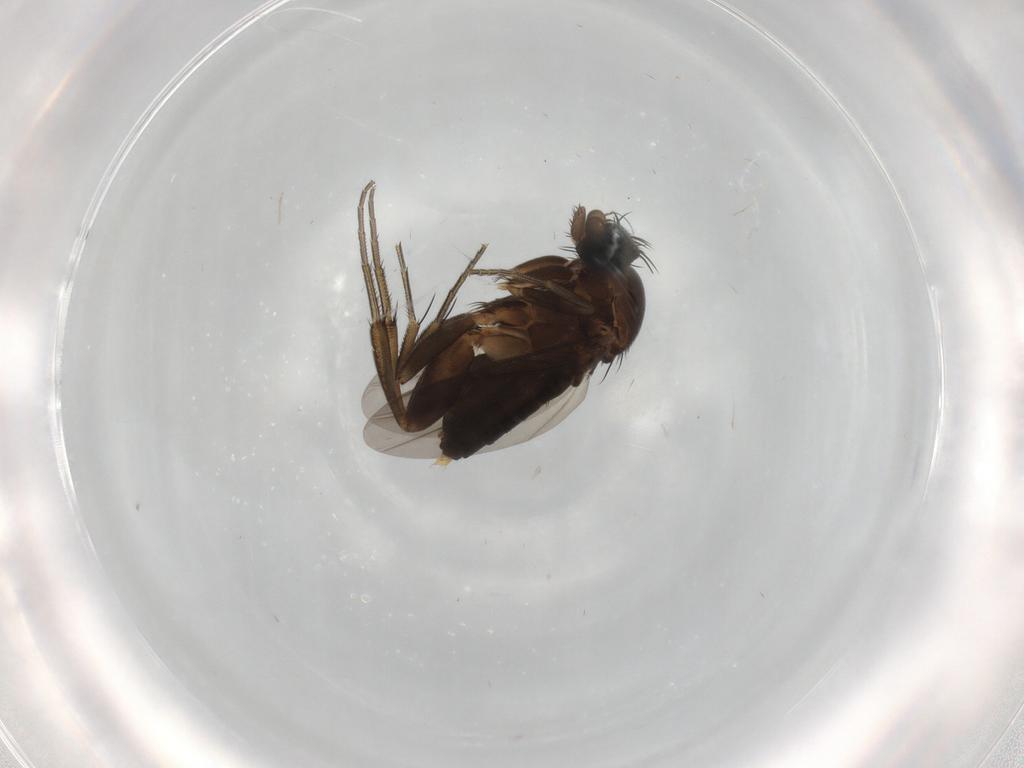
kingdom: Animalia
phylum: Arthropoda
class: Insecta
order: Diptera
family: Phoridae
